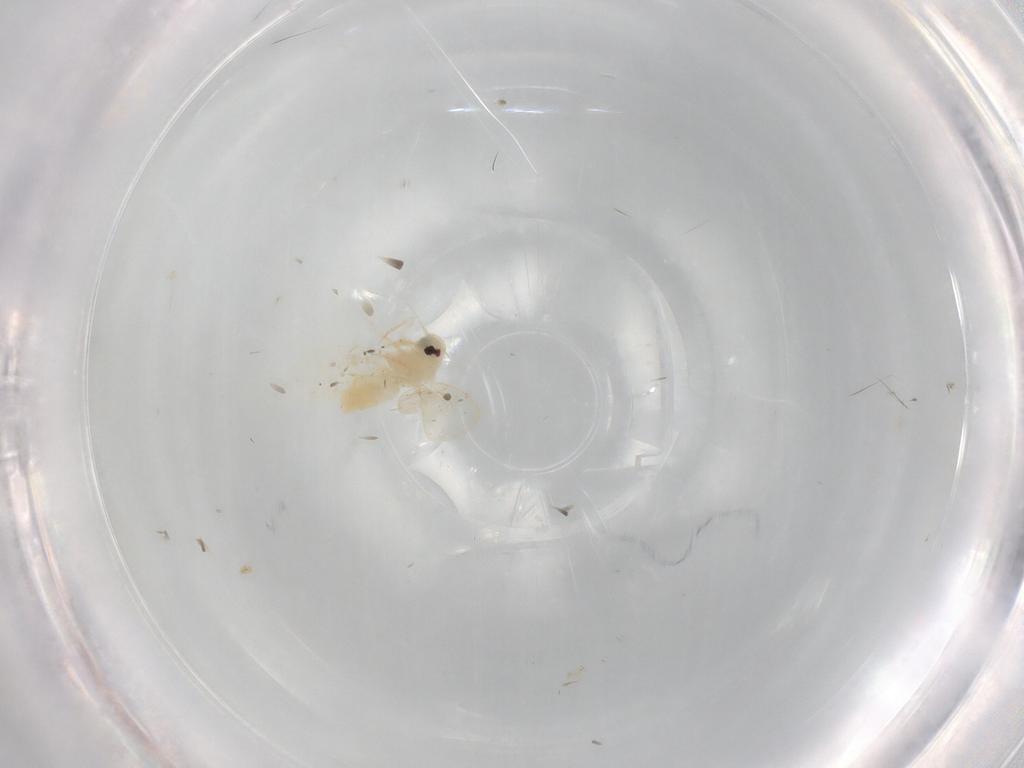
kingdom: Animalia
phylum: Arthropoda
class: Insecta
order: Hemiptera
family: Aleyrodidae
